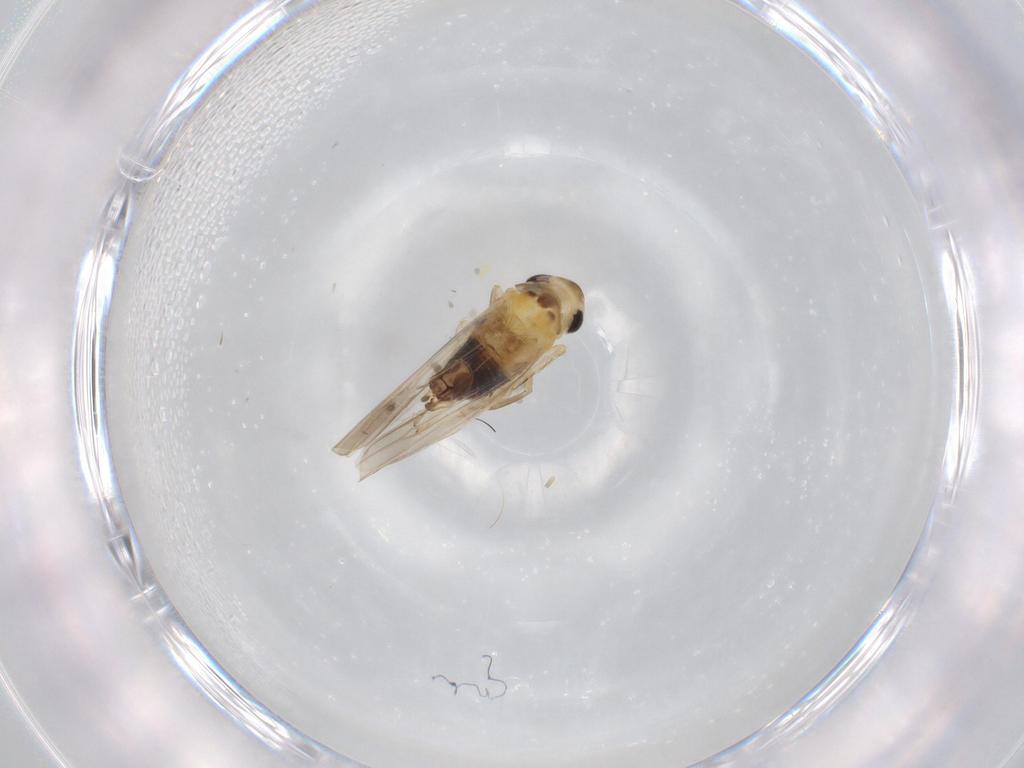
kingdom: Animalia
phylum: Arthropoda
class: Insecta
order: Hemiptera
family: Cicadellidae
